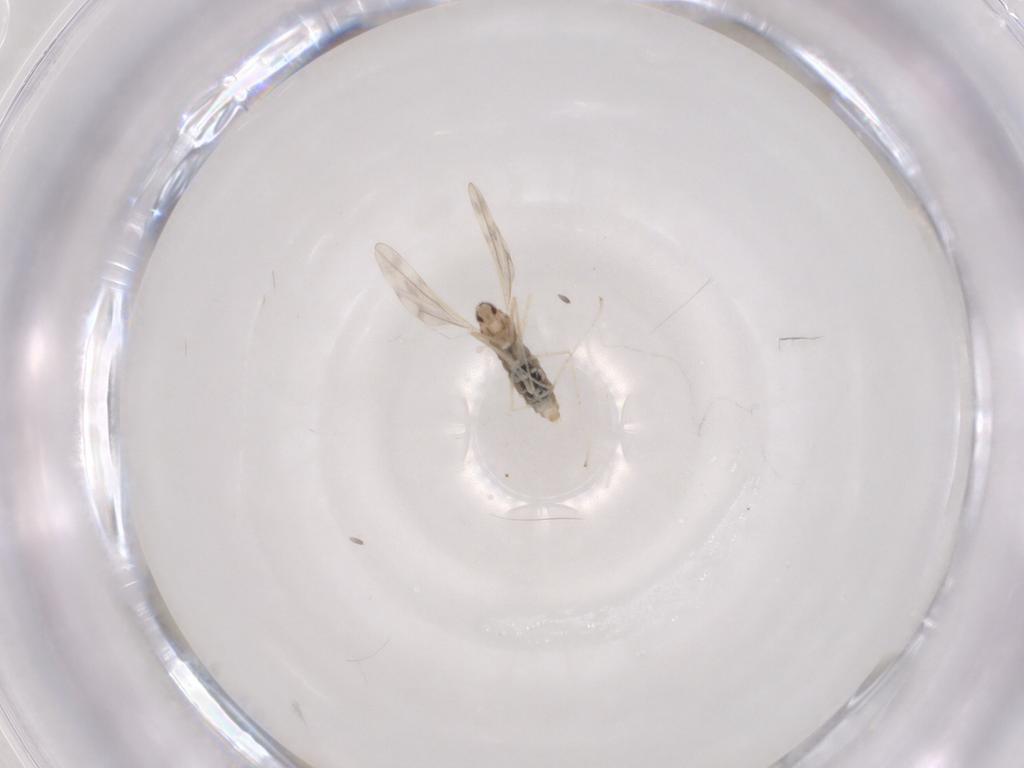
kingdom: Animalia
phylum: Arthropoda
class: Insecta
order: Diptera
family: Cecidomyiidae
